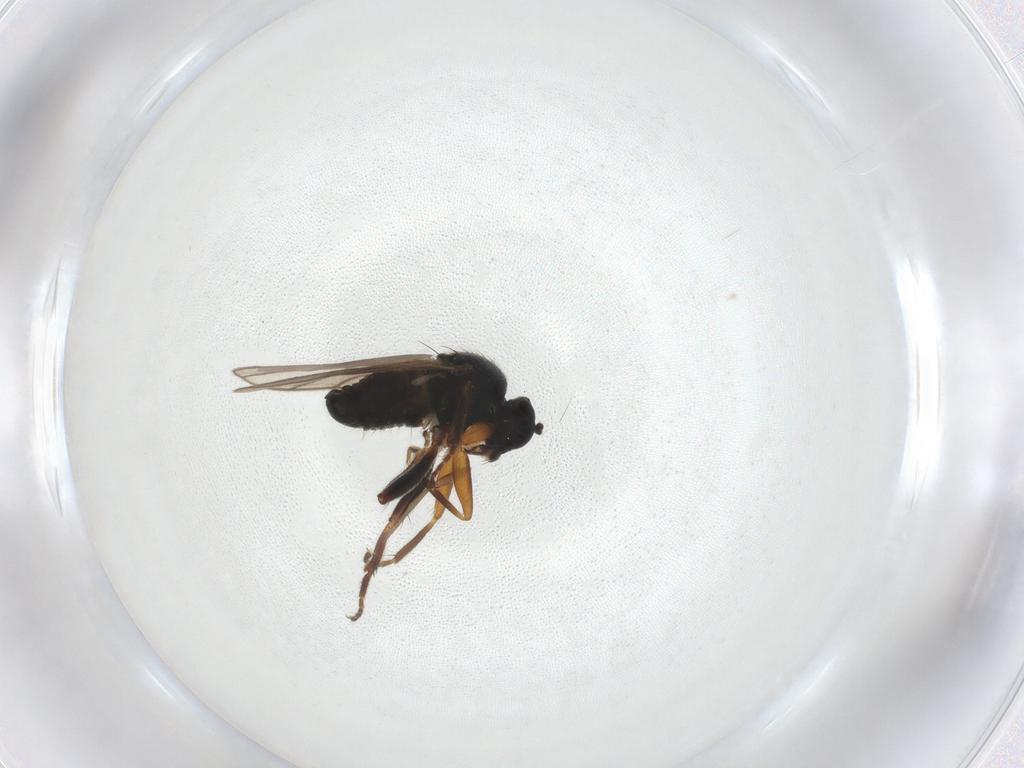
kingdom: Animalia
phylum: Arthropoda
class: Insecta
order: Diptera
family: Phoridae
